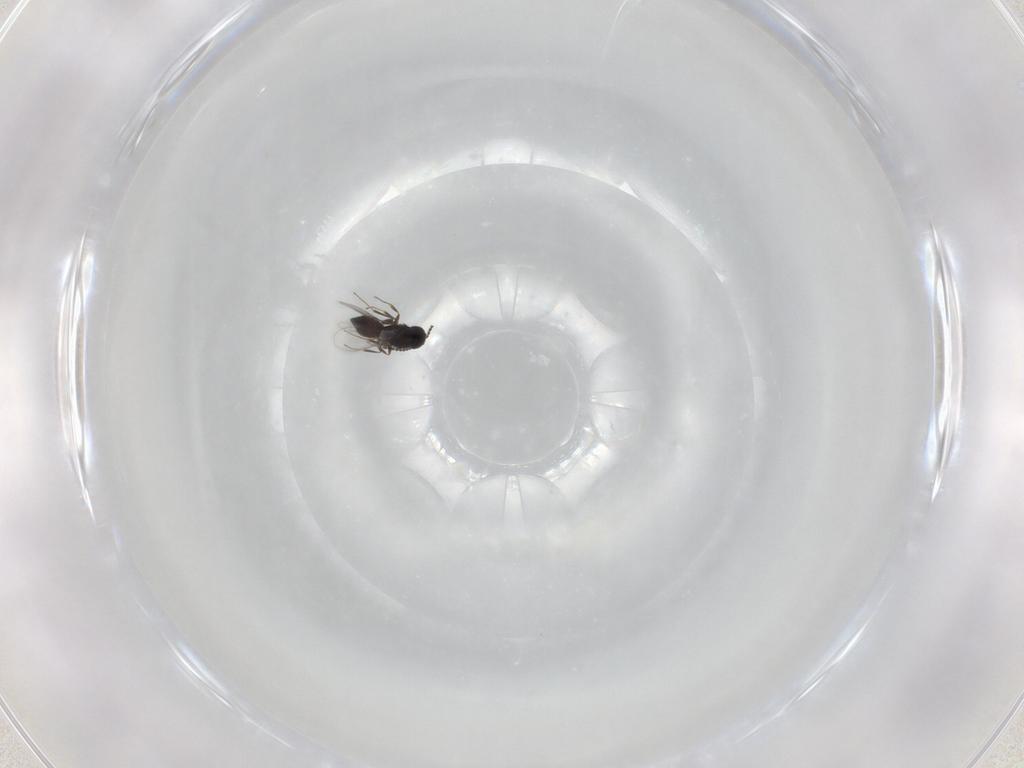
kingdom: Animalia
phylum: Arthropoda
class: Insecta
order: Hymenoptera
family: Scelionidae
